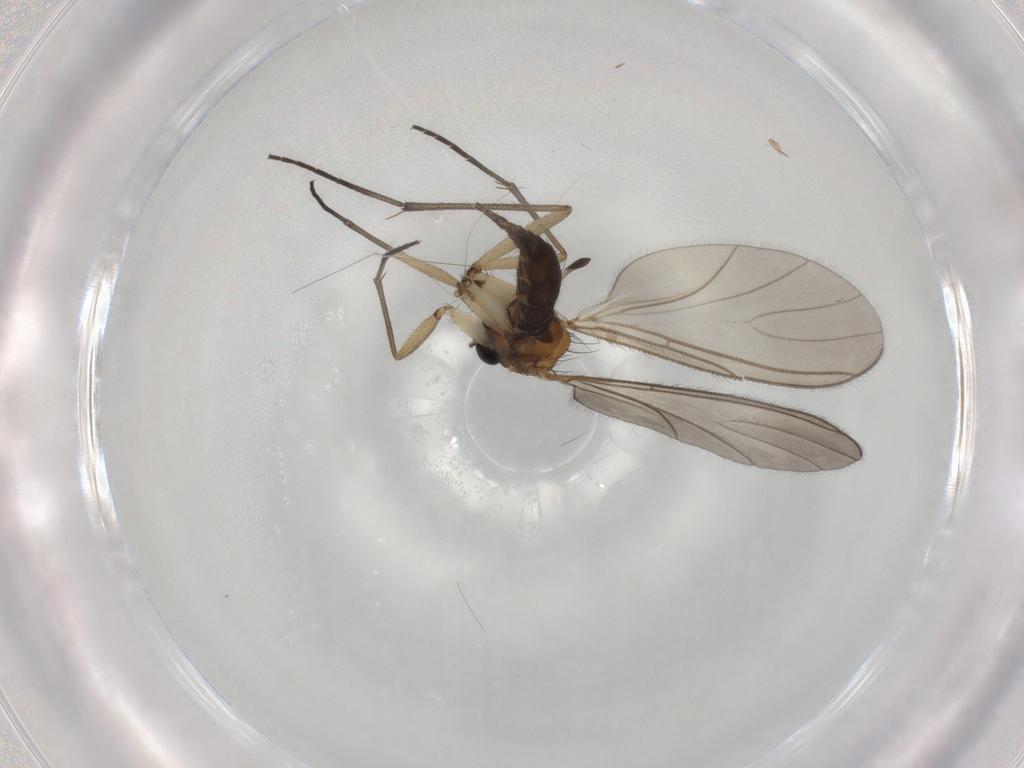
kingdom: Animalia
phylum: Arthropoda
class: Insecta
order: Diptera
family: Sciaridae
